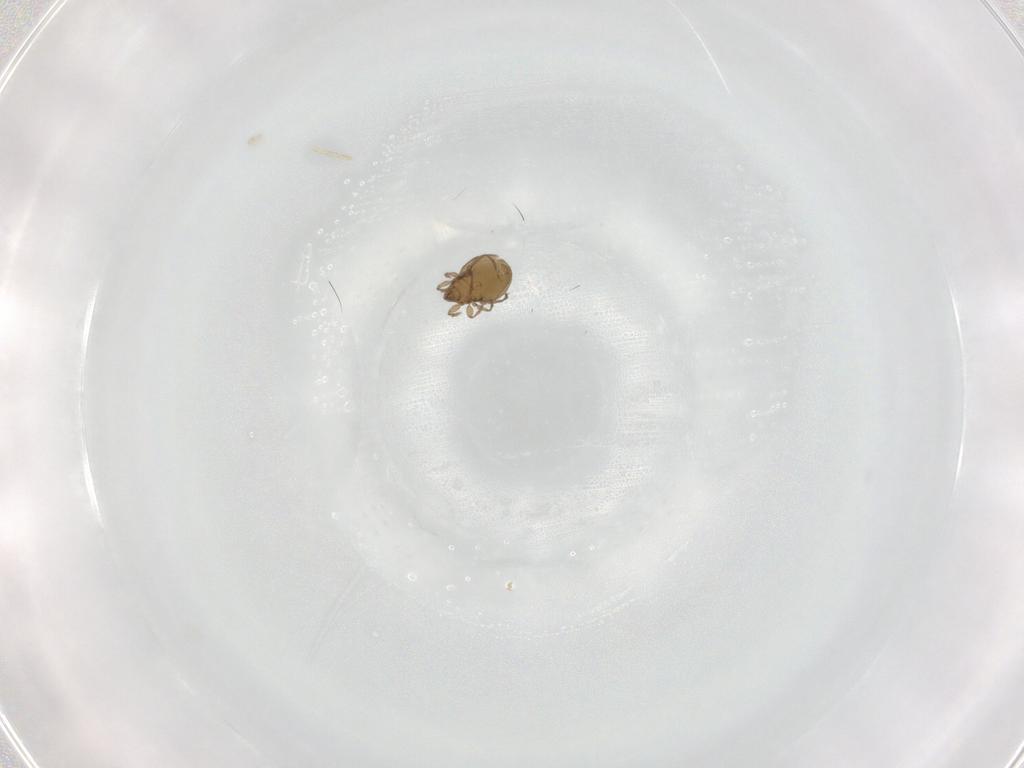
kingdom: Animalia
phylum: Arthropoda
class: Arachnida
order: Sarcoptiformes
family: Oribatulidae
